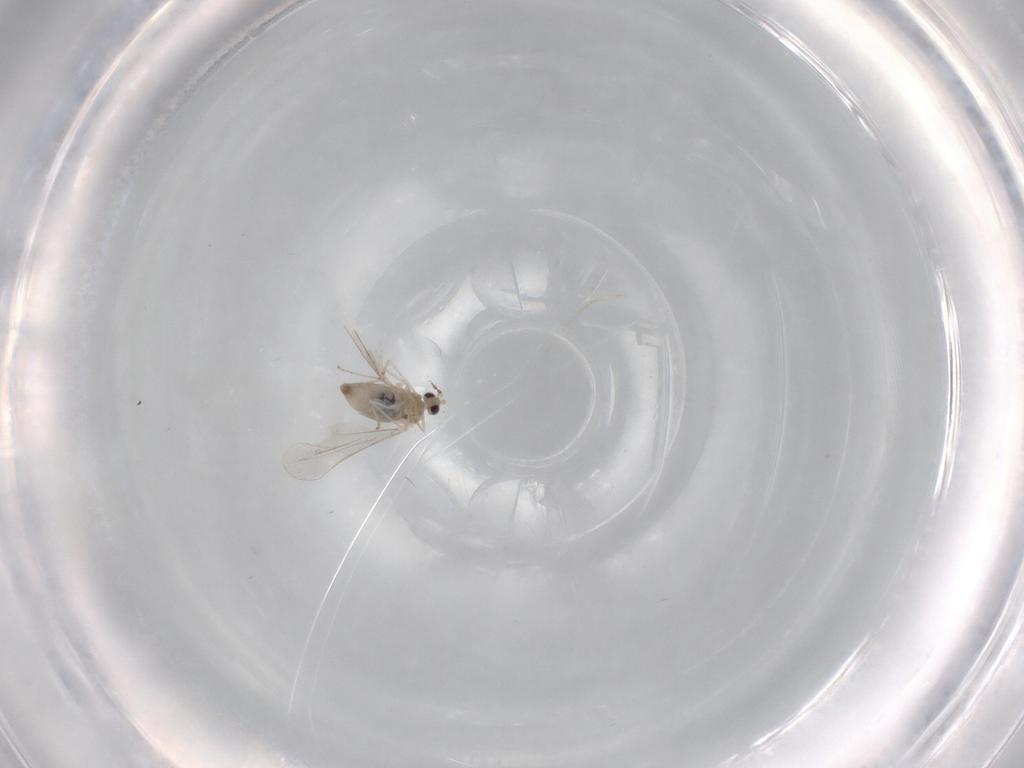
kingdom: Animalia
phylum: Arthropoda
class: Insecta
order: Diptera
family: Cecidomyiidae
